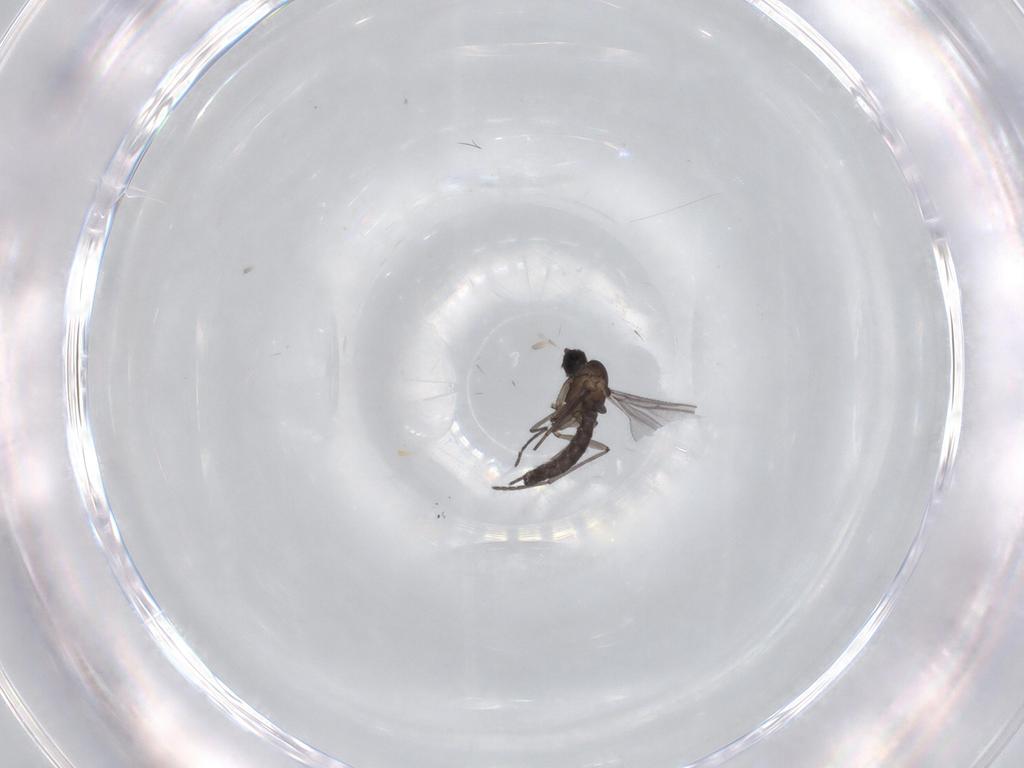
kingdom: Animalia
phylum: Arthropoda
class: Insecta
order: Diptera
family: Sciaridae
